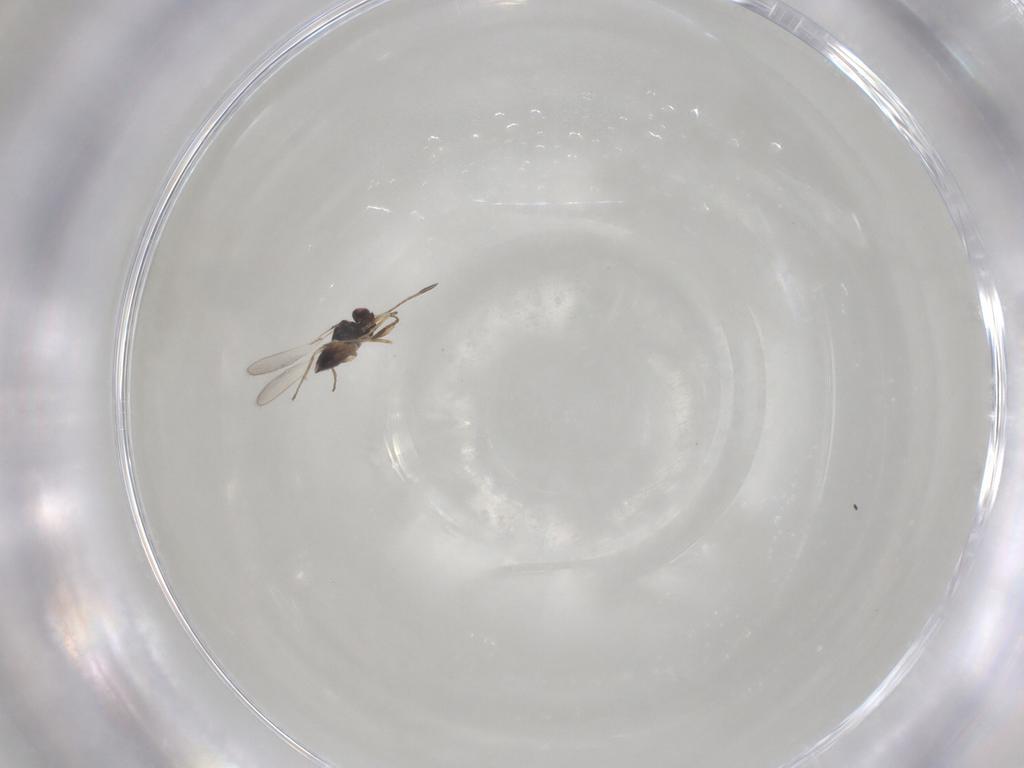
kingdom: Animalia
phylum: Arthropoda
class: Insecta
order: Hymenoptera
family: Mymaridae
